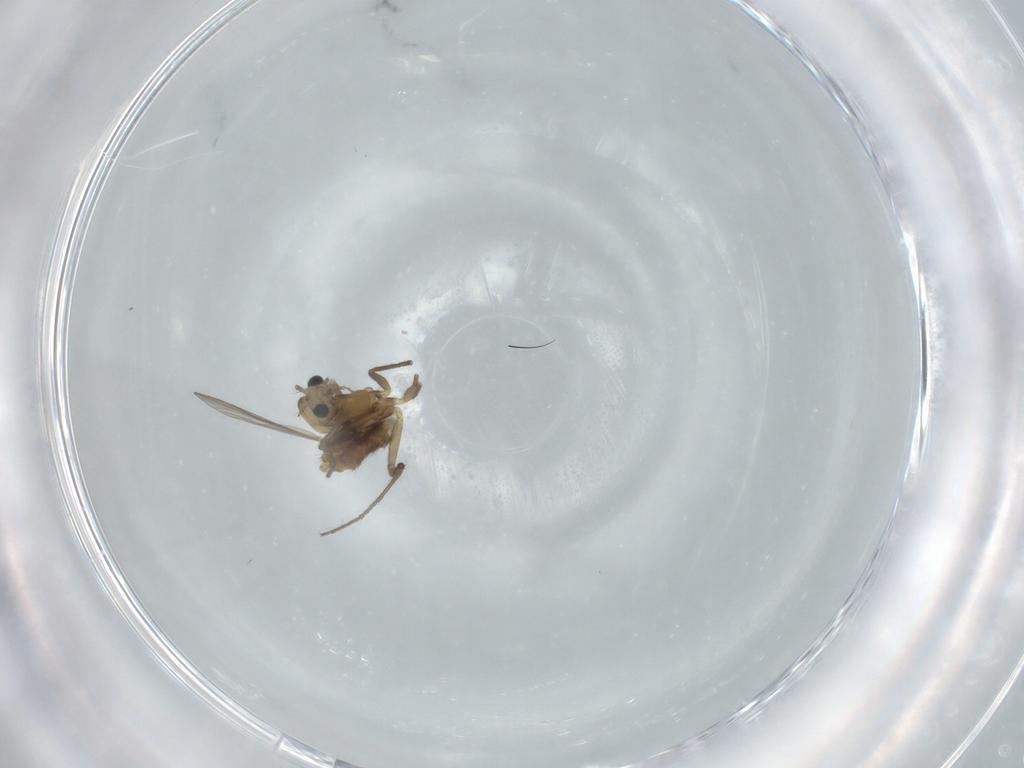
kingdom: Animalia
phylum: Arthropoda
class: Insecta
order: Diptera
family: Chironomidae
